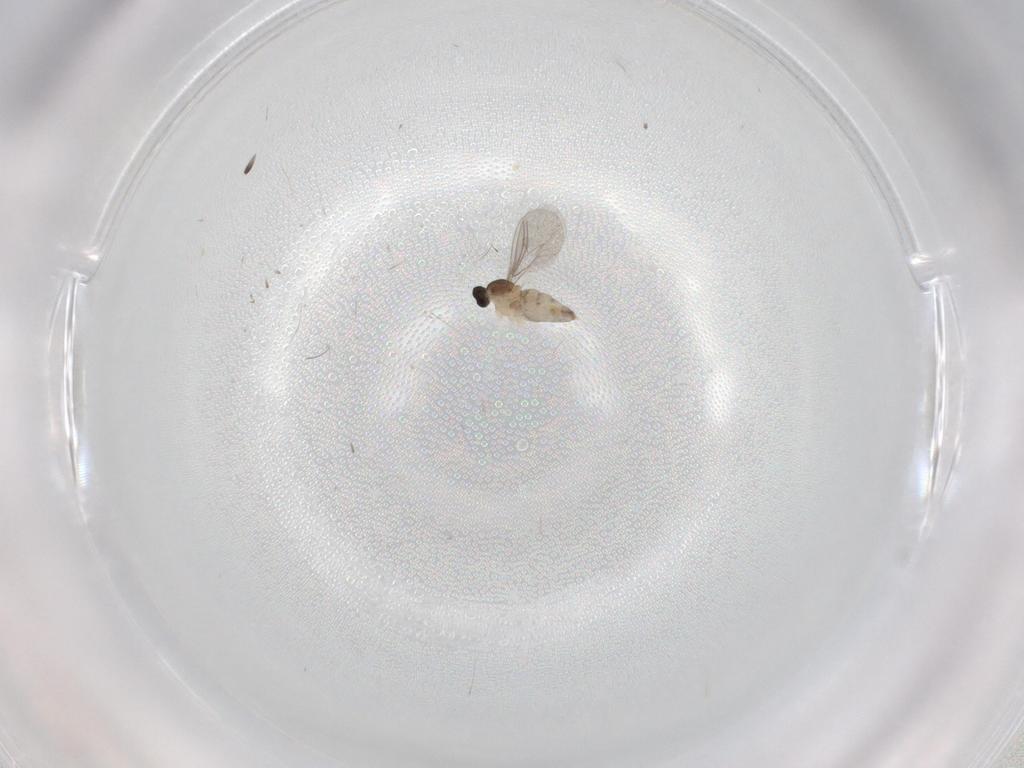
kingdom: Animalia
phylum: Arthropoda
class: Insecta
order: Diptera
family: Cecidomyiidae
